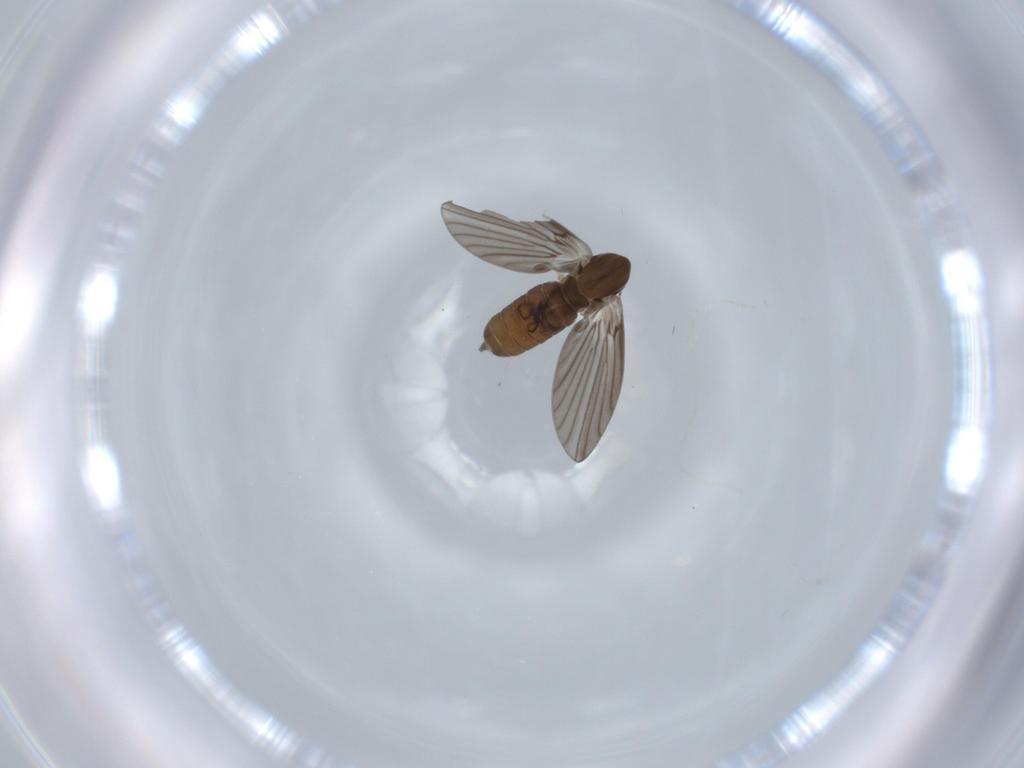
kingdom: Animalia
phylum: Arthropoda
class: Insecta
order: Diptera
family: Psychodidae
